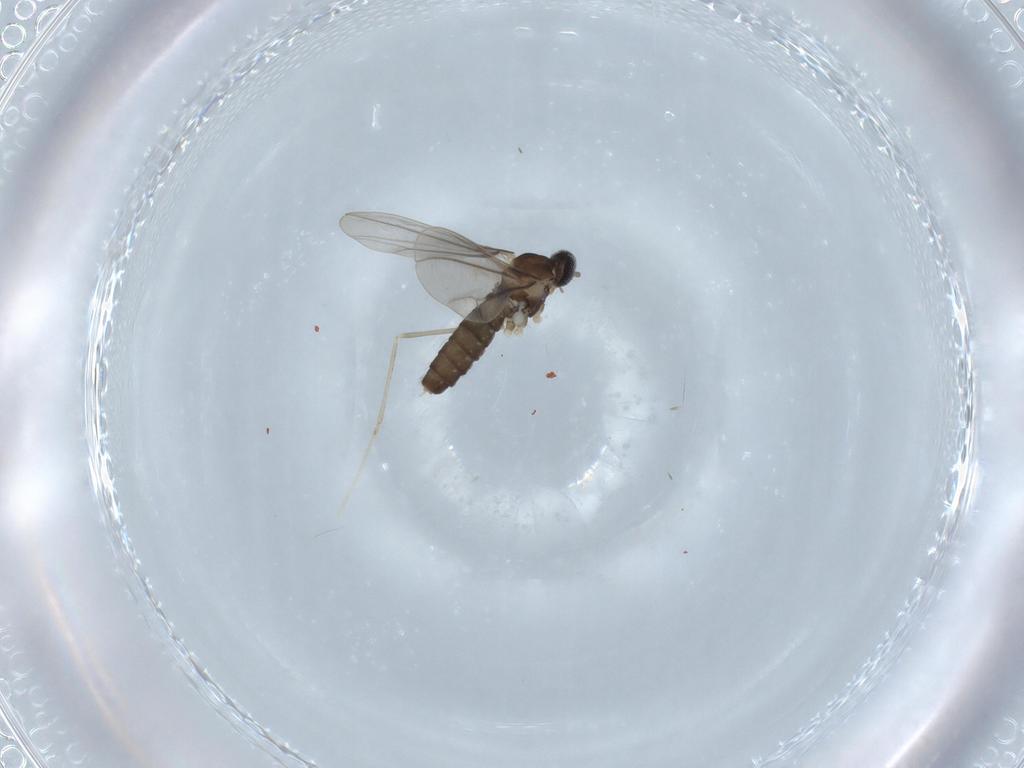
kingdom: Animalia
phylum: Arthropoda
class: Insecta
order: Diptera
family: Cecidomyiidae
